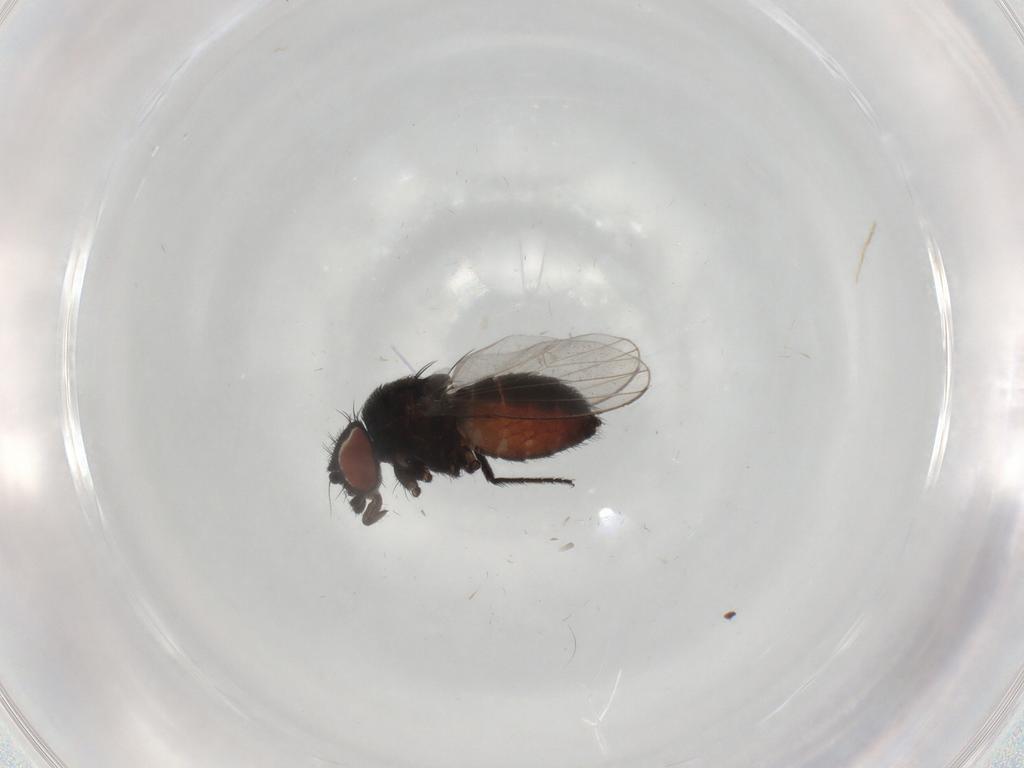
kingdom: Animalia
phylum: Arthropoda
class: Insecta
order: Diptera
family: Milichiidae
